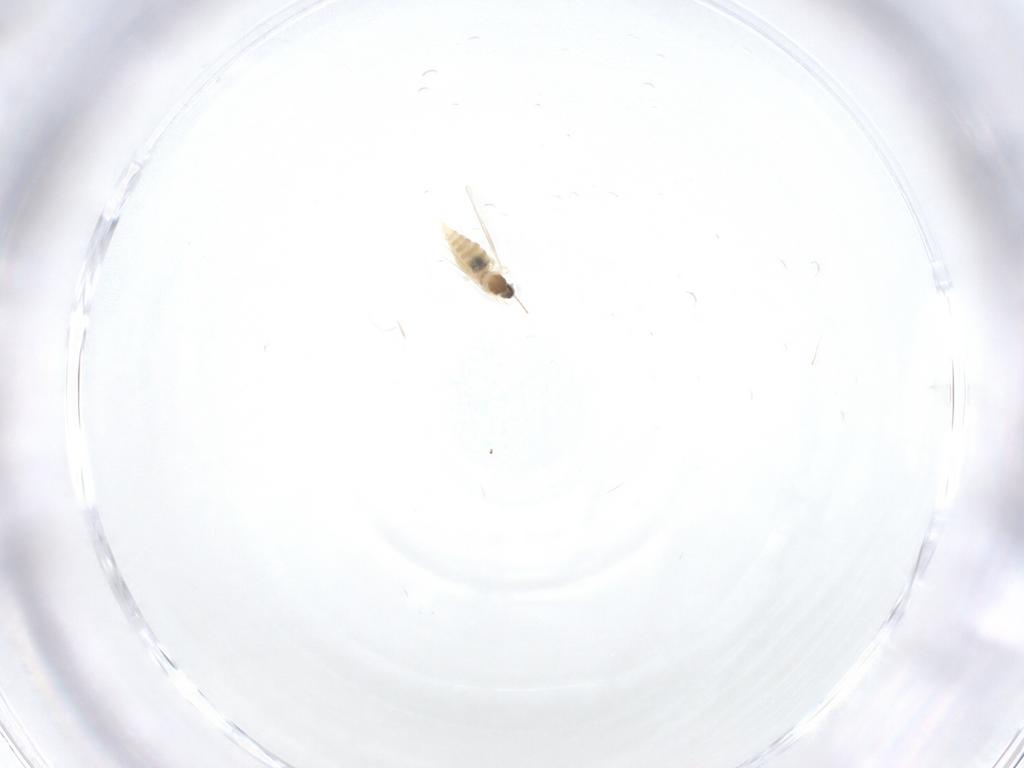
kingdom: Animalia
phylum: Arthropoda
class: Insecta
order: Diptera
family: Cecidomyiidae
